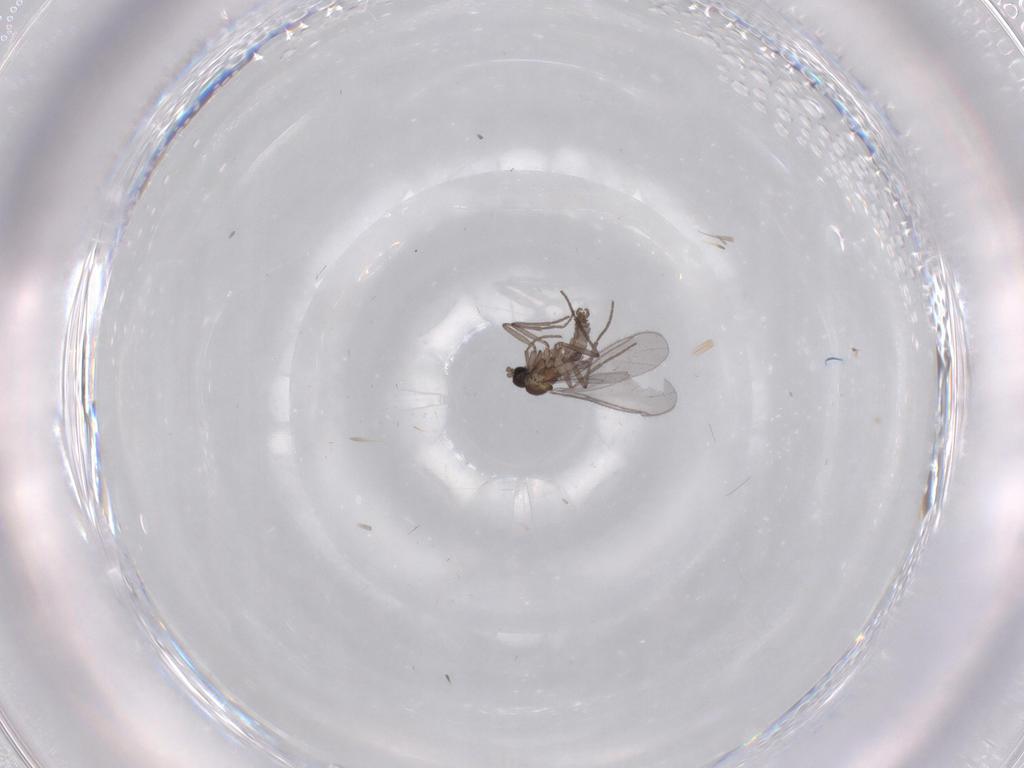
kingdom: Animalia
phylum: Arthropoda
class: Insecta
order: Diptera
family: Sciaridae
